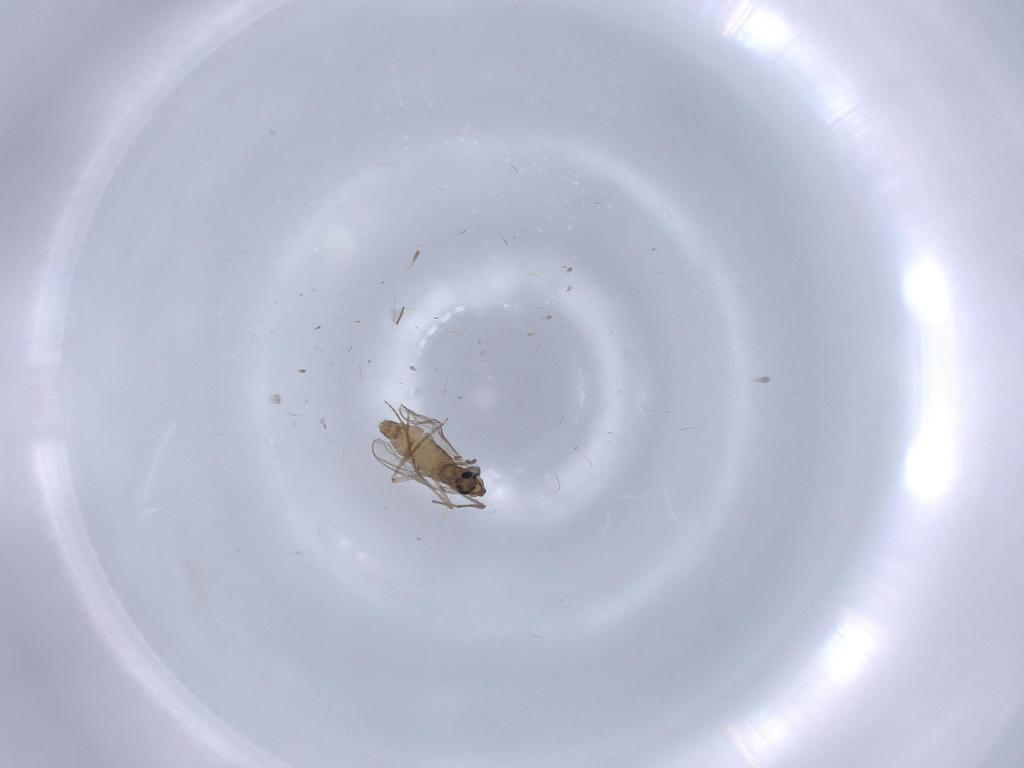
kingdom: Animalia
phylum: Arthropoda
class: Insecta
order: Diptera
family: Chironomidae
